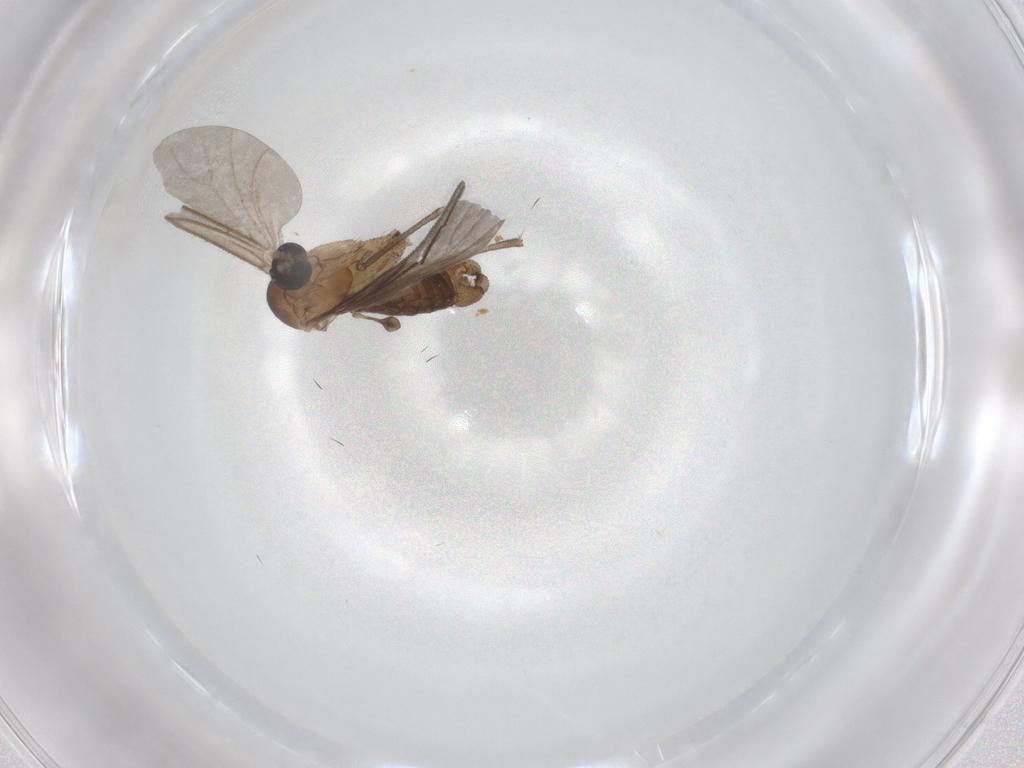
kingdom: Animalia
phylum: Arthropoda
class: Insecta
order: Diptera
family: Sciaridae
